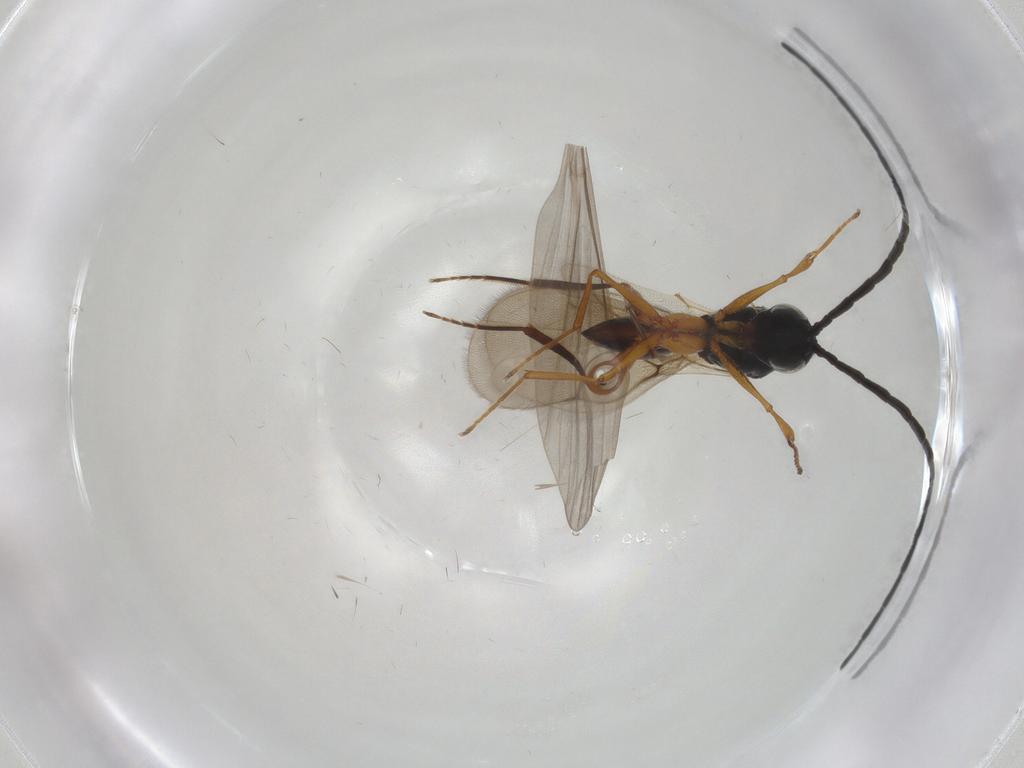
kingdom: Animalia
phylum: Arthropoda
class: Insecta
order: Hymenoptera
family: Figitidae
